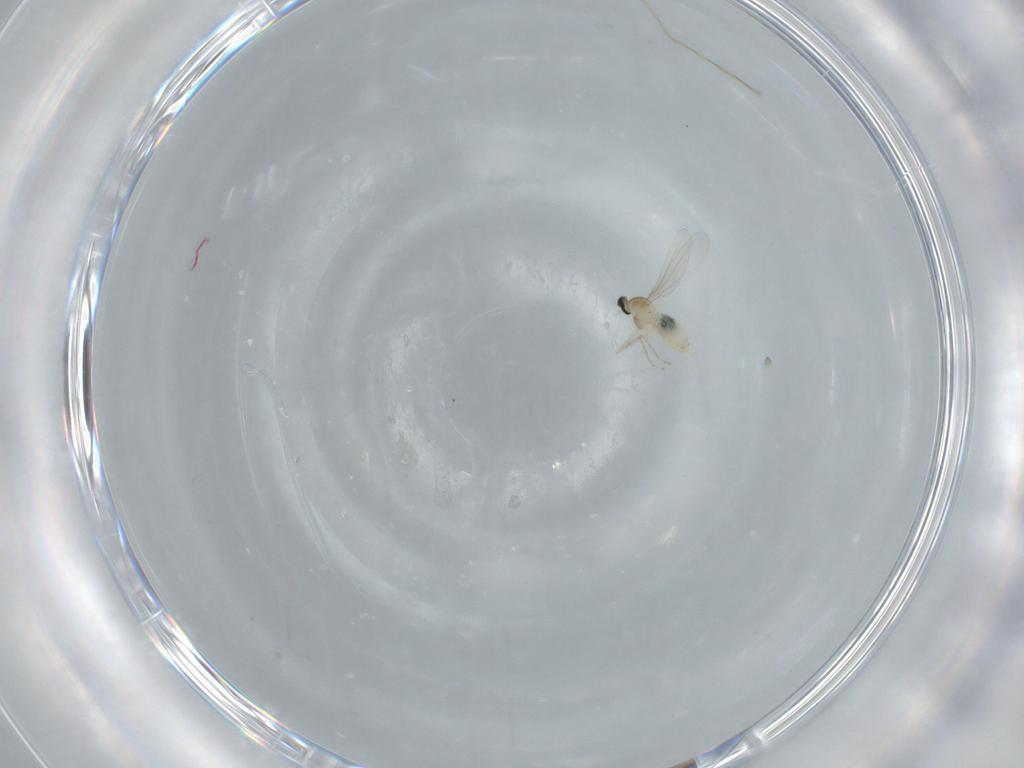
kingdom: Animalia
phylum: Arthropoda
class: Insecta
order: Diptera
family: Cecidomyiidae
